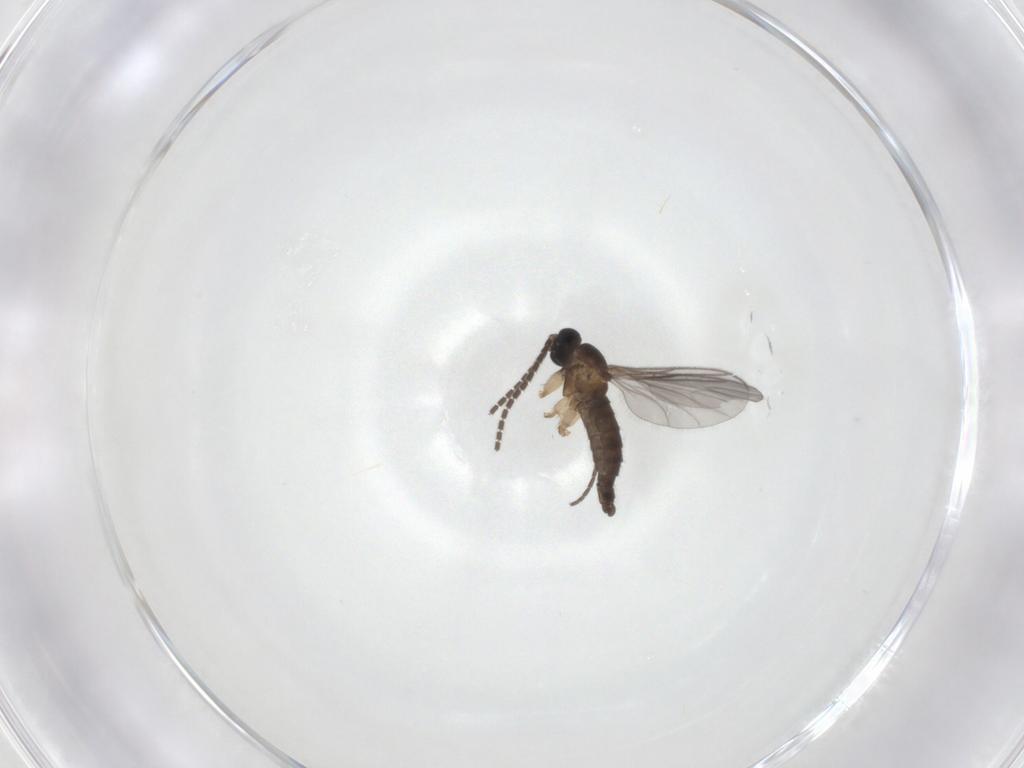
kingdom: Animalia
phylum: Arthropoda
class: Insecta
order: Diptera
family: Sciaridae
